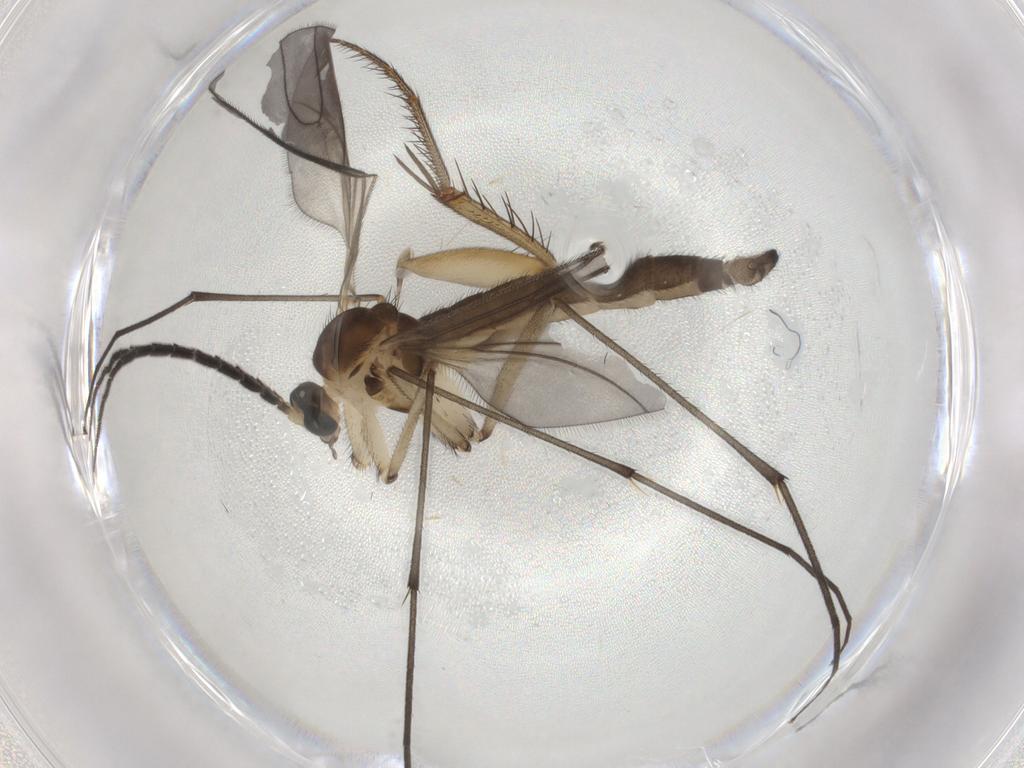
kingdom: Animalia
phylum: Arthropoda
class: Insecta
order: Diptera
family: Sciaridae
